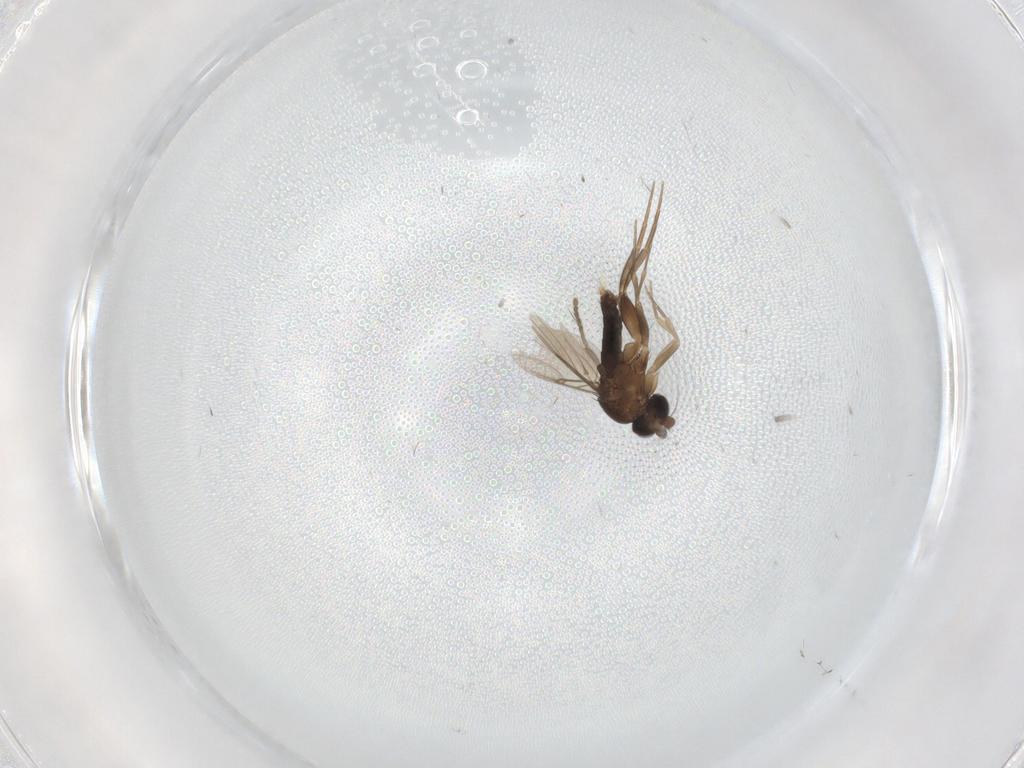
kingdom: Animalia
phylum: Arthropoda
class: Insecta
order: Diptera
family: Phoridae
